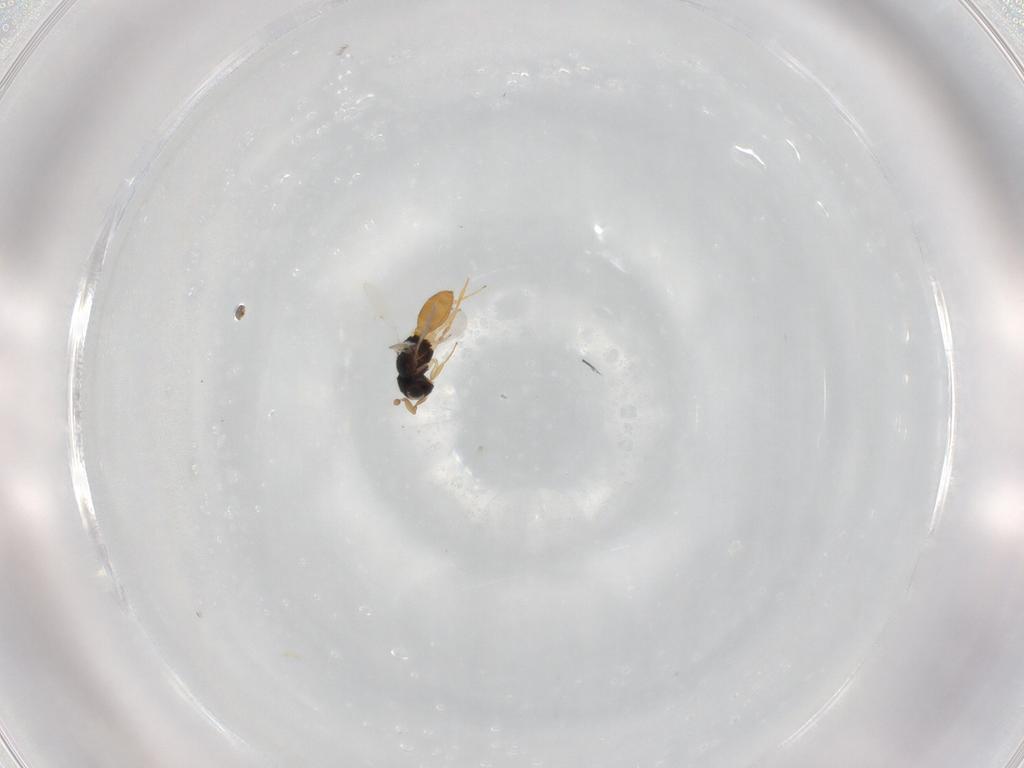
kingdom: Animalia
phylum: Arthropoda
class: Insecta
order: Hymenoptera
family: Scelionidae
